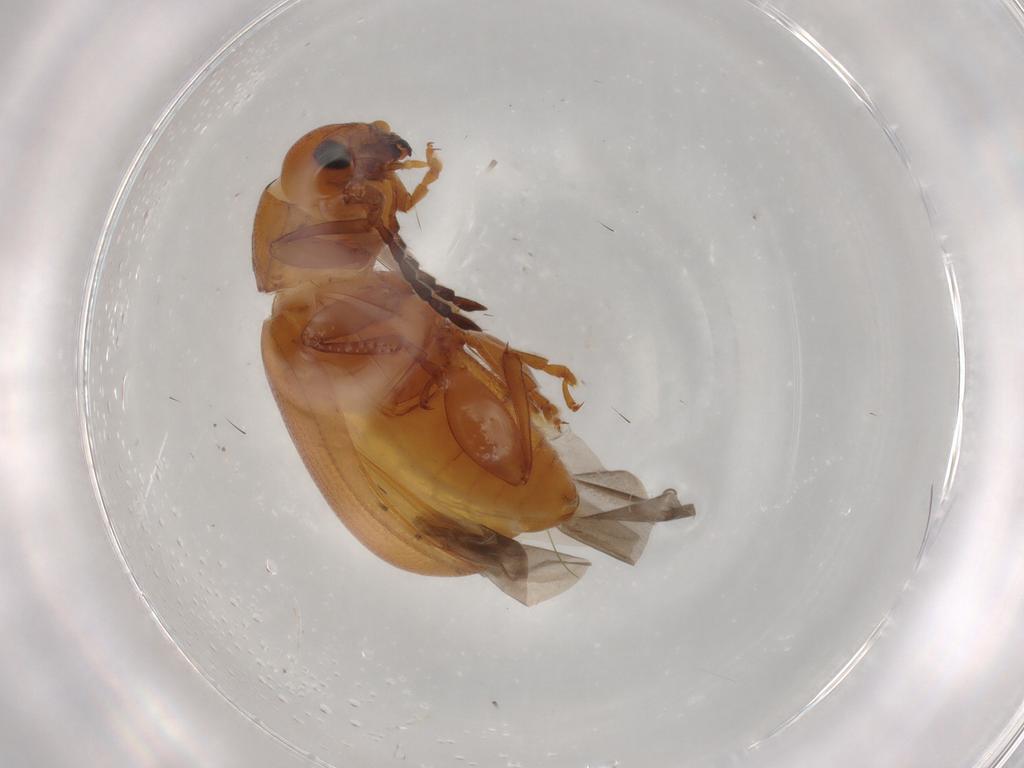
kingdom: Animalia
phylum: Arthropoda
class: Insecta
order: Coleoptera
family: Chrysomelidae
